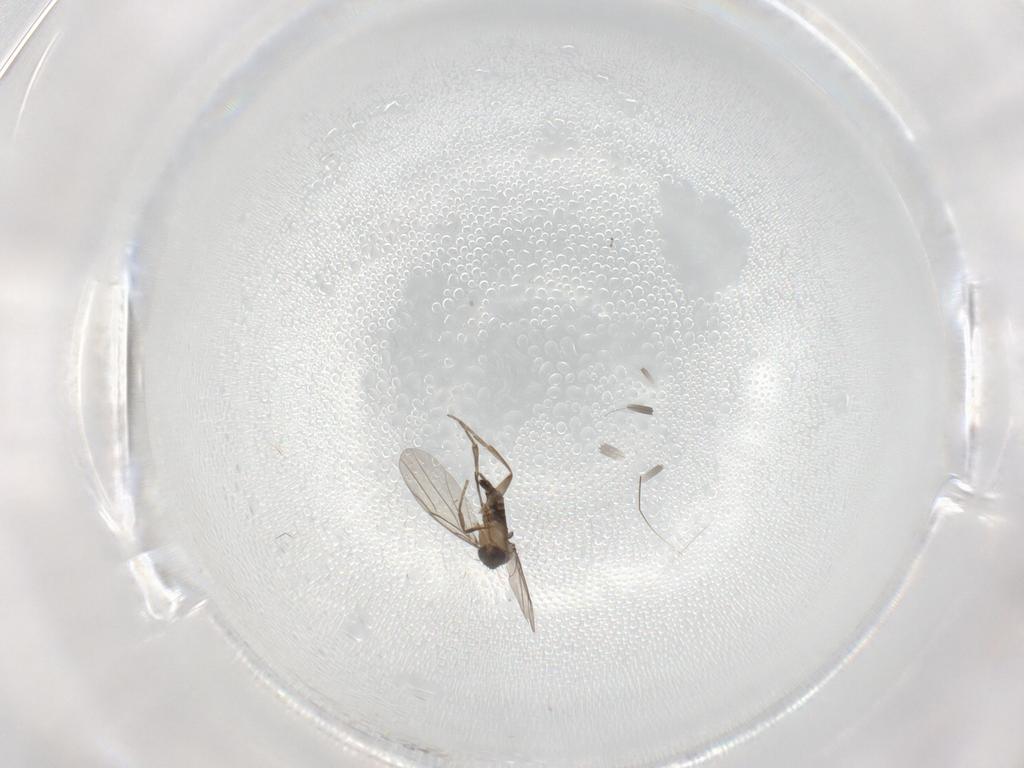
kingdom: Animalia
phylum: Arthropoda
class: Insecta
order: Diptera
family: Phoridae
